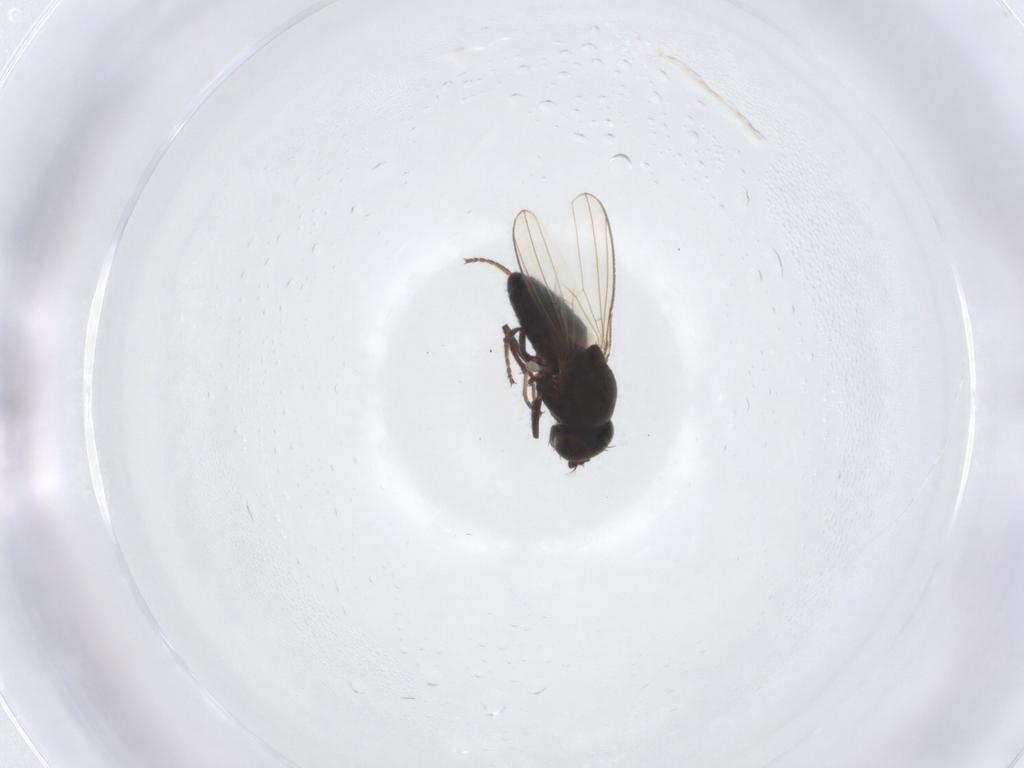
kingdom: Animalia
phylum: Arthropoda
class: Insecta
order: Diptera
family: Ephydridae
